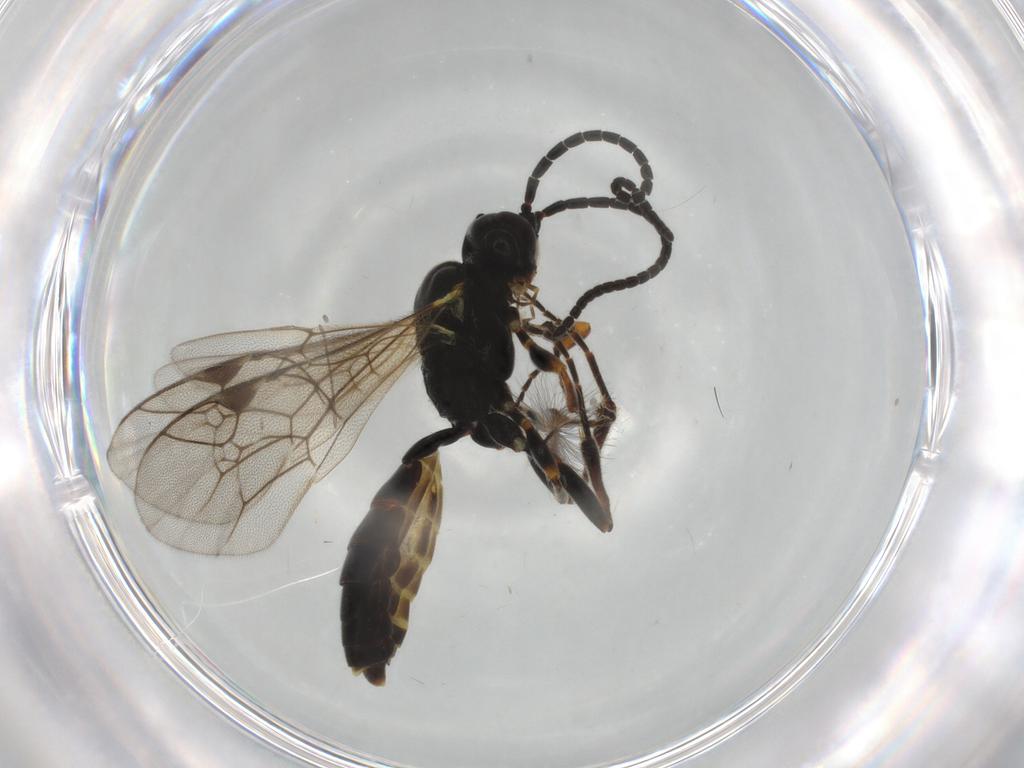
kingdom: Animalia
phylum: Arthropoda
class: Insecta
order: Hymenoptera
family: Ichneumonidae
